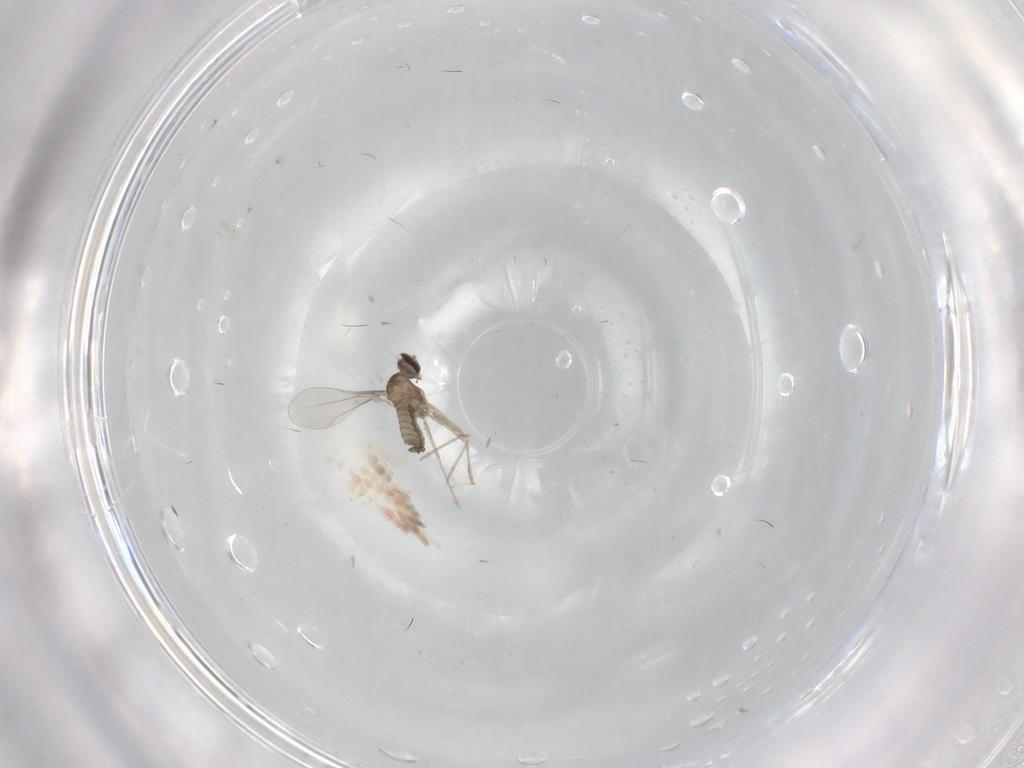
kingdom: Animalia
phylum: Arthropoda
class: Insecta
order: Diptera
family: Cecidomyiidae
